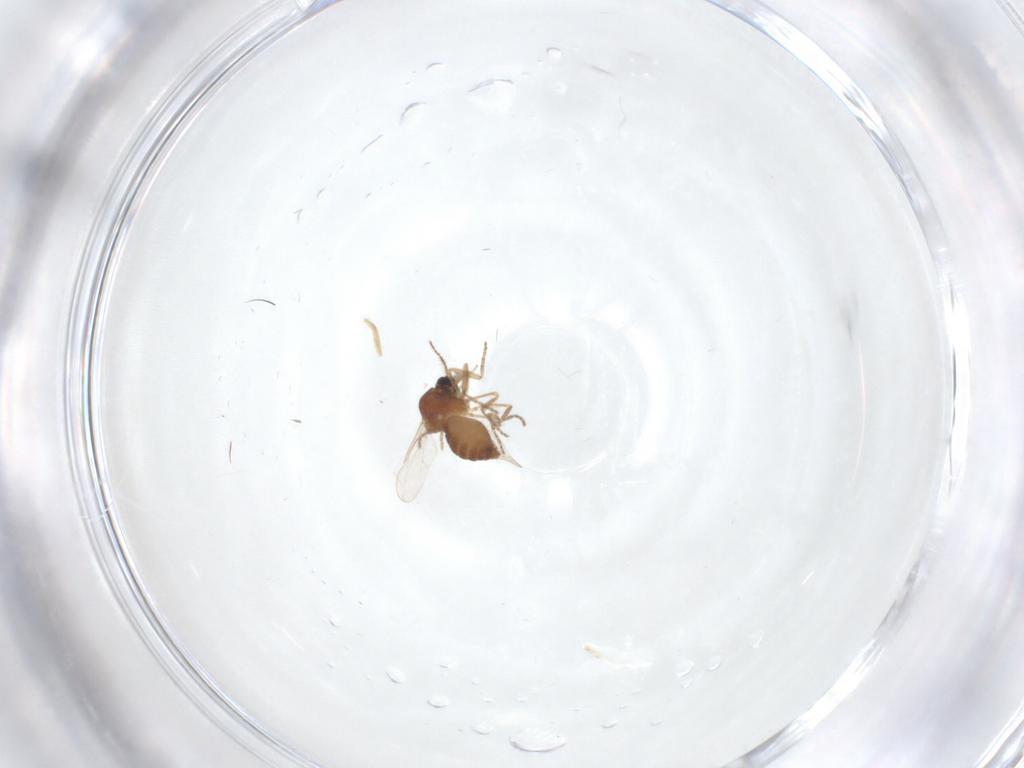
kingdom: Animalia
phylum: Arthropoda
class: Insecta
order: Diptera
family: Ceratopogonidae
